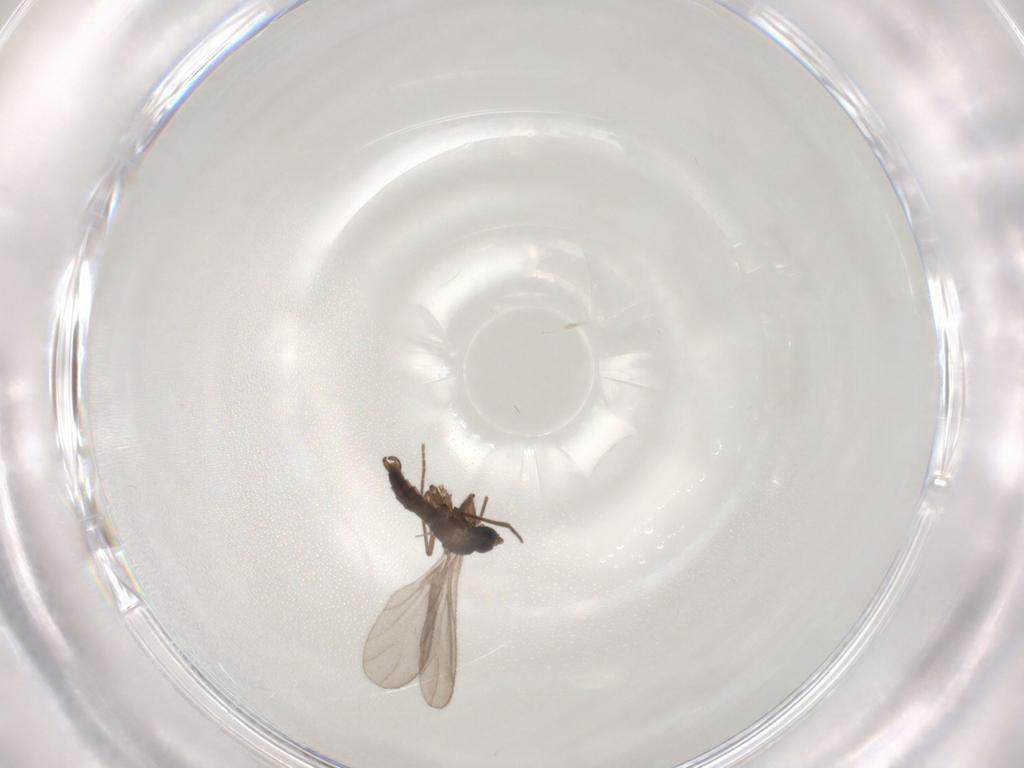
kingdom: Animalia
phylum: Arthropoda
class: Insecta
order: Diptera
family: Sciaridae
